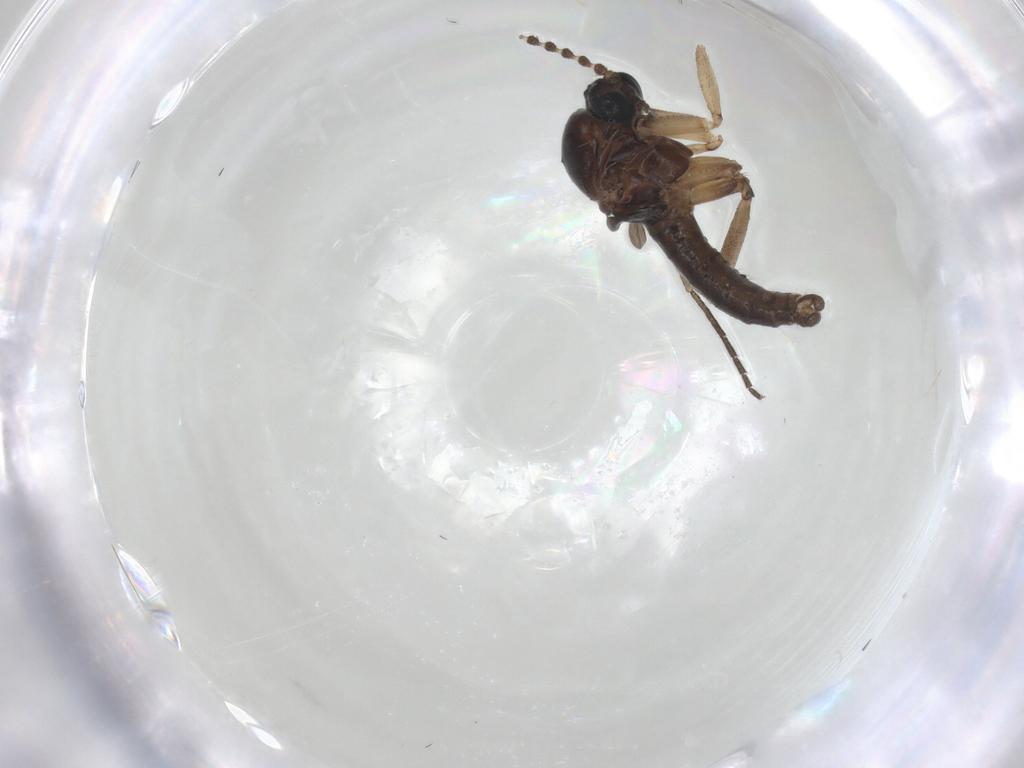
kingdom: Animalia
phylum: Arthropoda
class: Insecta
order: Diptera
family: Sciaridae
